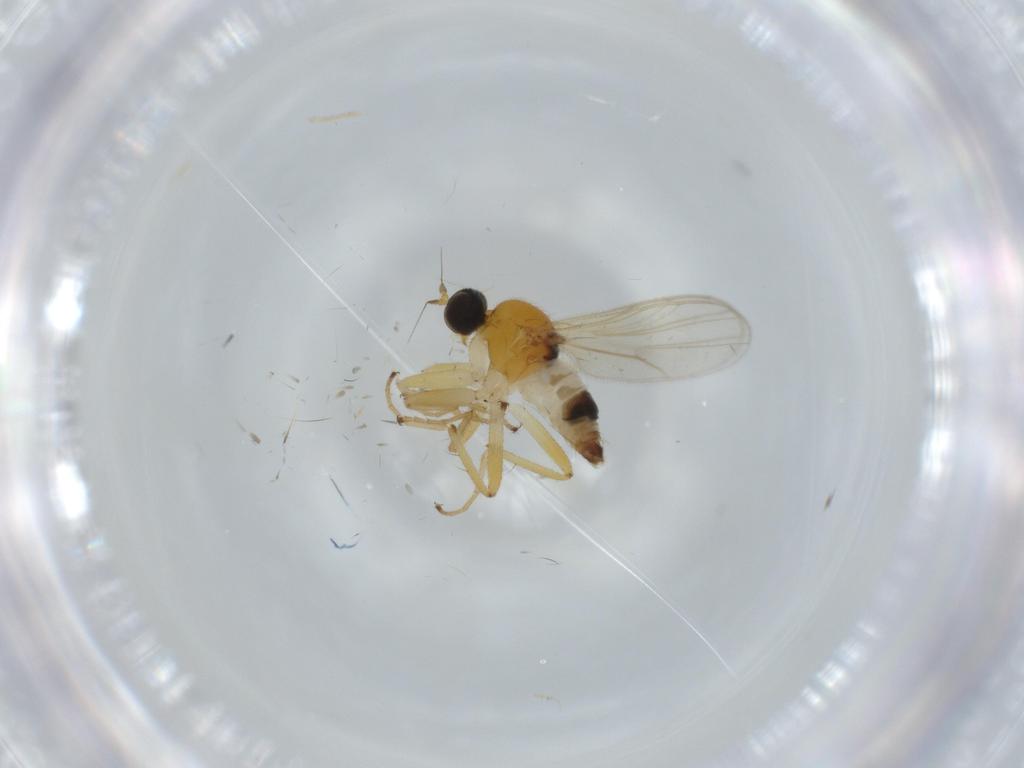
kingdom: Animalia
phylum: Arthropoda
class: Insecta
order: Diptera
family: Hybotidae
